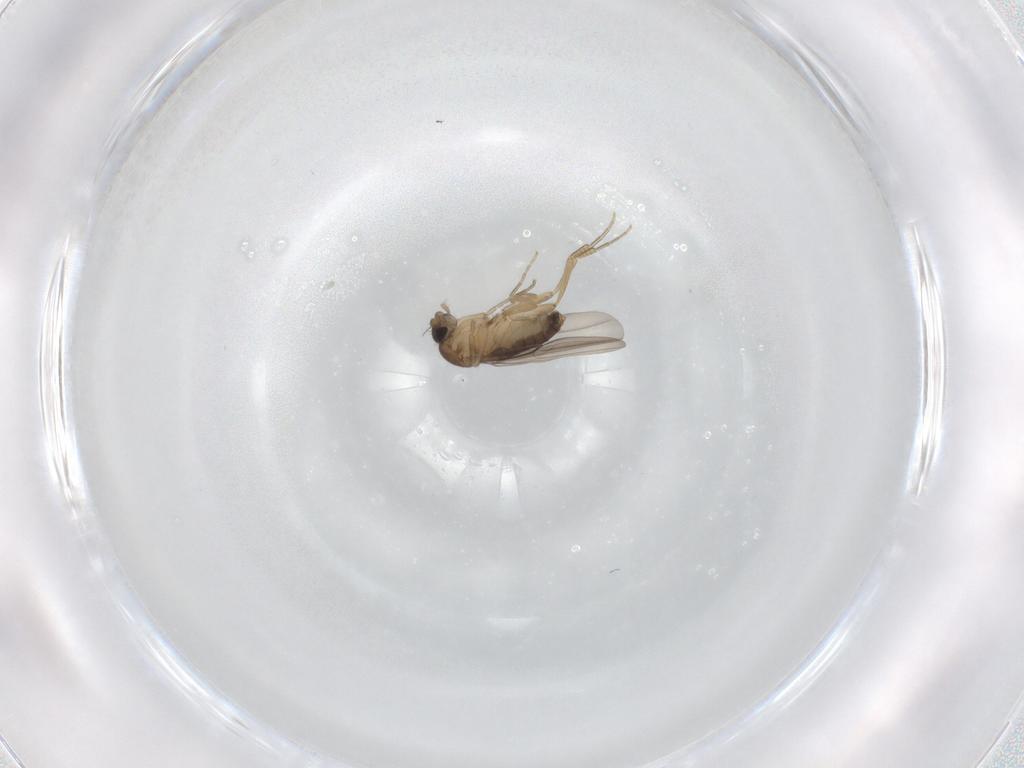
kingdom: Animalia
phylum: Arthropoda
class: Insecta
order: Diptera
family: Phoridae
